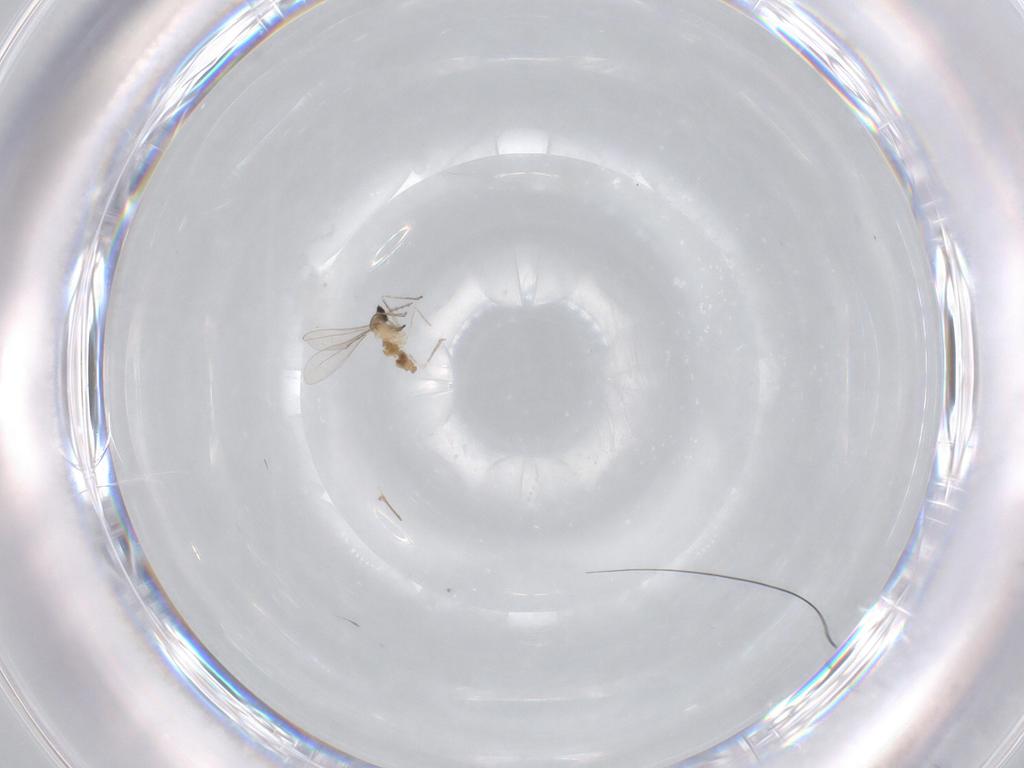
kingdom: Animalia
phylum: Arthropoda
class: Insecta
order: Diptera
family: Cecidomyiidae
